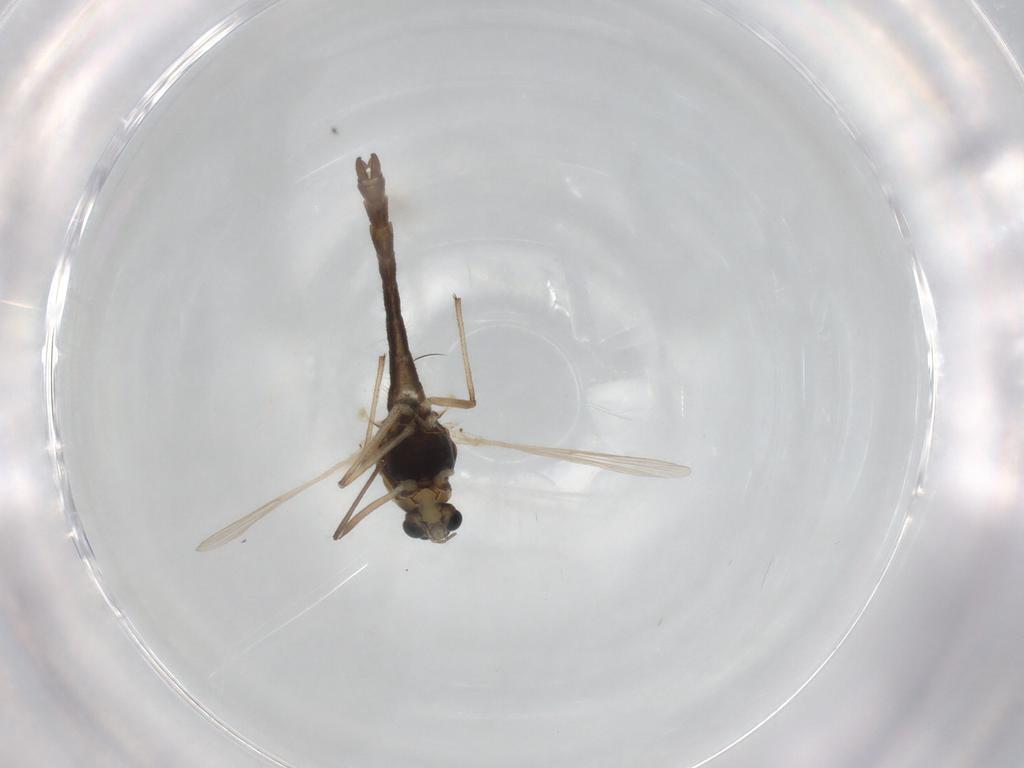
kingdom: Animalia
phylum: Arthropoda
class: Insecta
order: Diptera
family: Chironomidae
